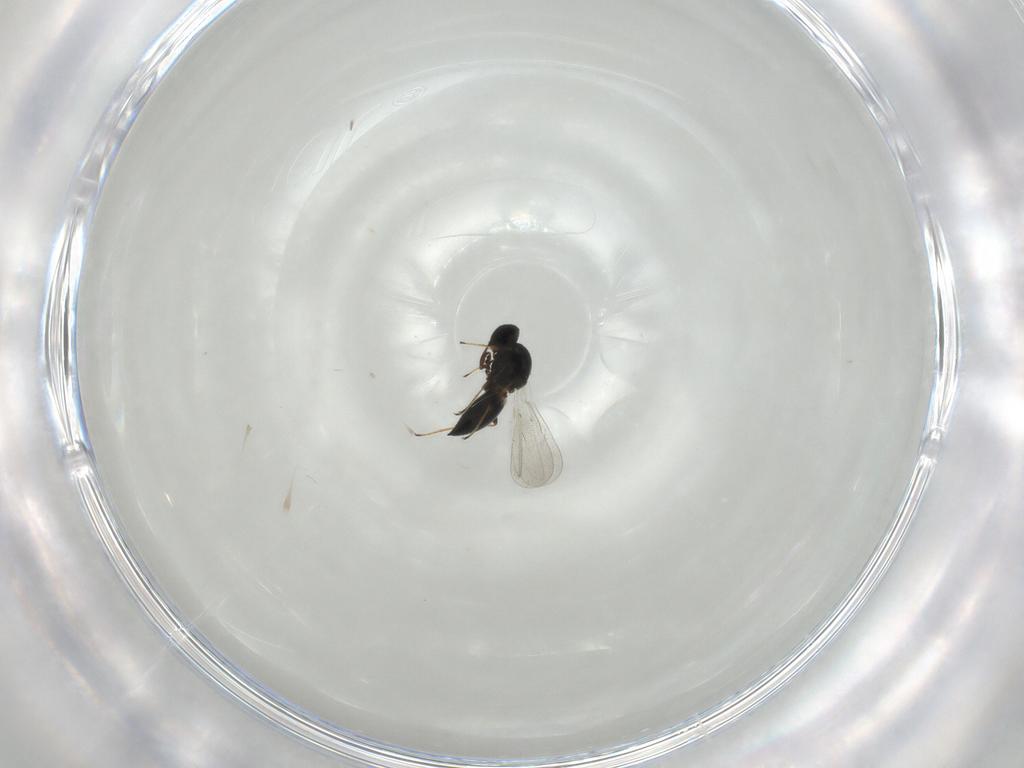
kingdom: Animalia
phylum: Arthropoda
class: Insecta
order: Hymenoptera
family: Platygastridae
